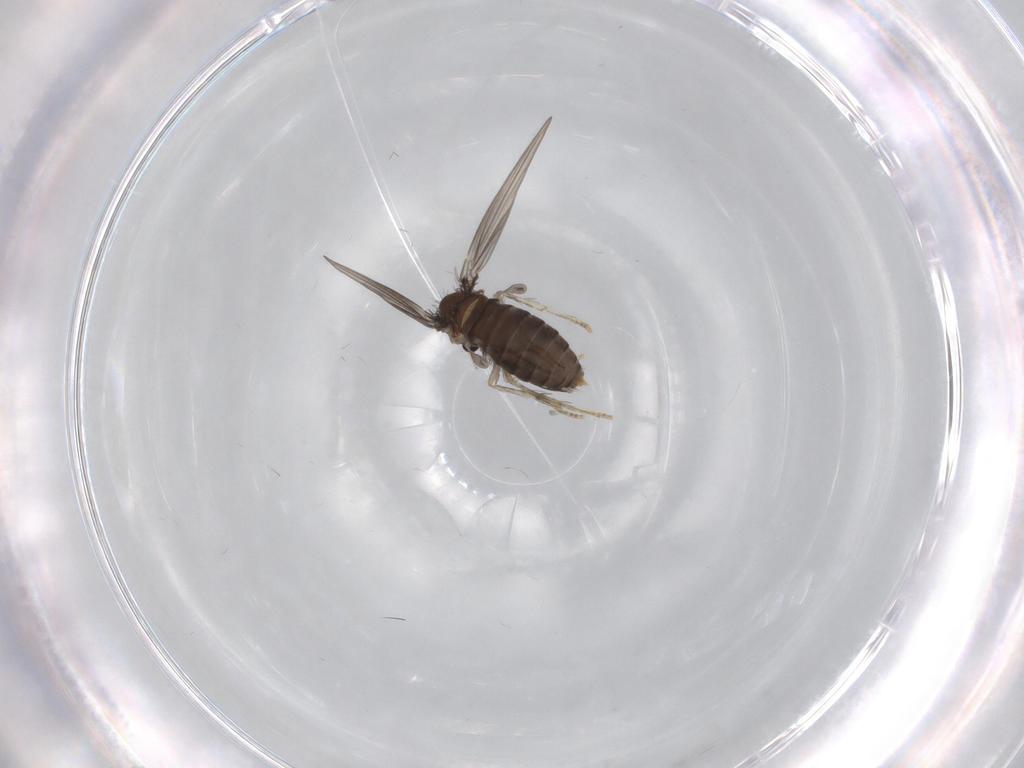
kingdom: Animalia
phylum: Arthropoda
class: Insecta
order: Diptera
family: Psychodidae
